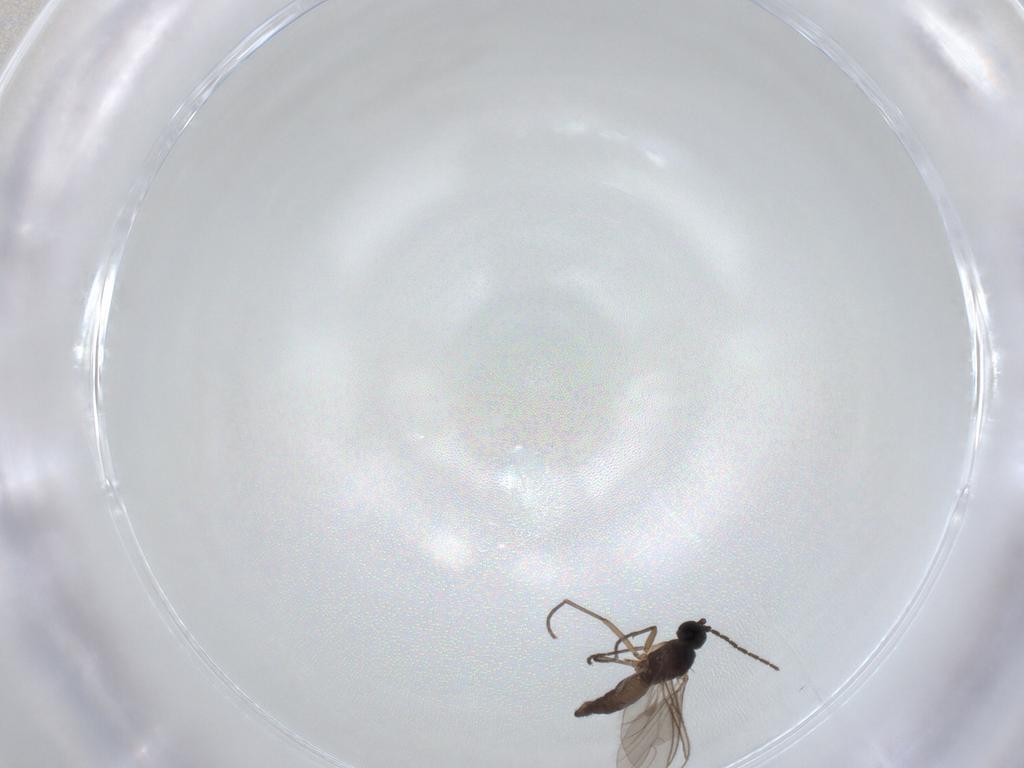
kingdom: Animalia
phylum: Arthropoda
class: Insecta
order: Diptera
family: Sciaridae
